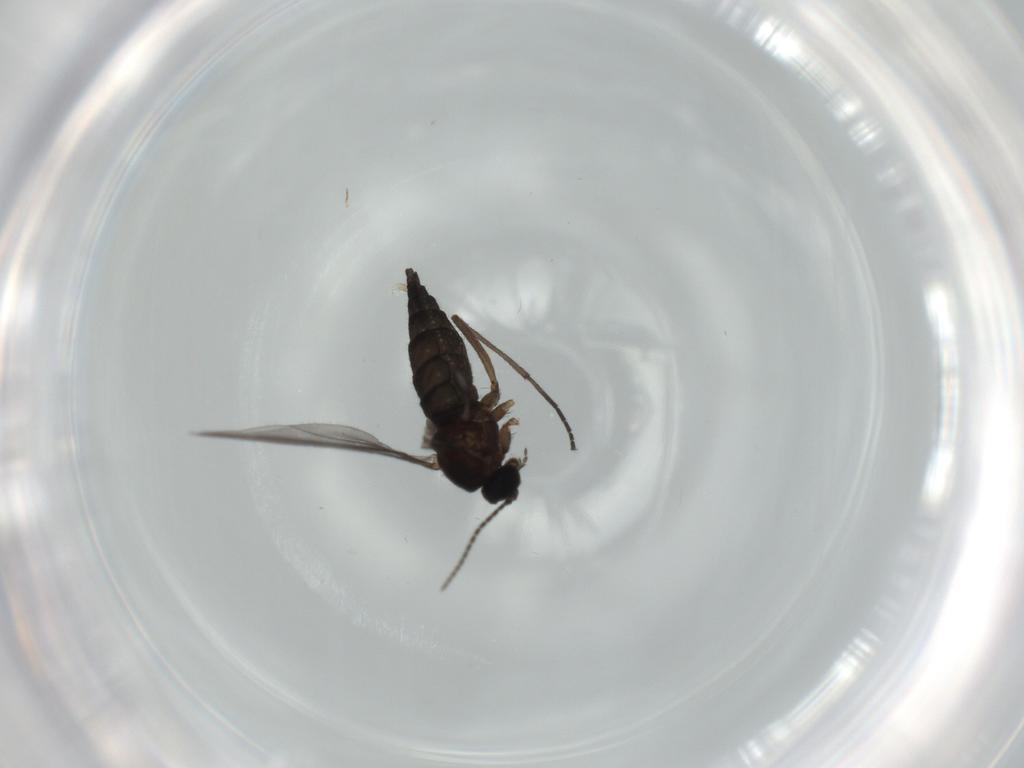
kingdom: Animalia
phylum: Arthropoda
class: Insecta
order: Diptera
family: Sciaridae
